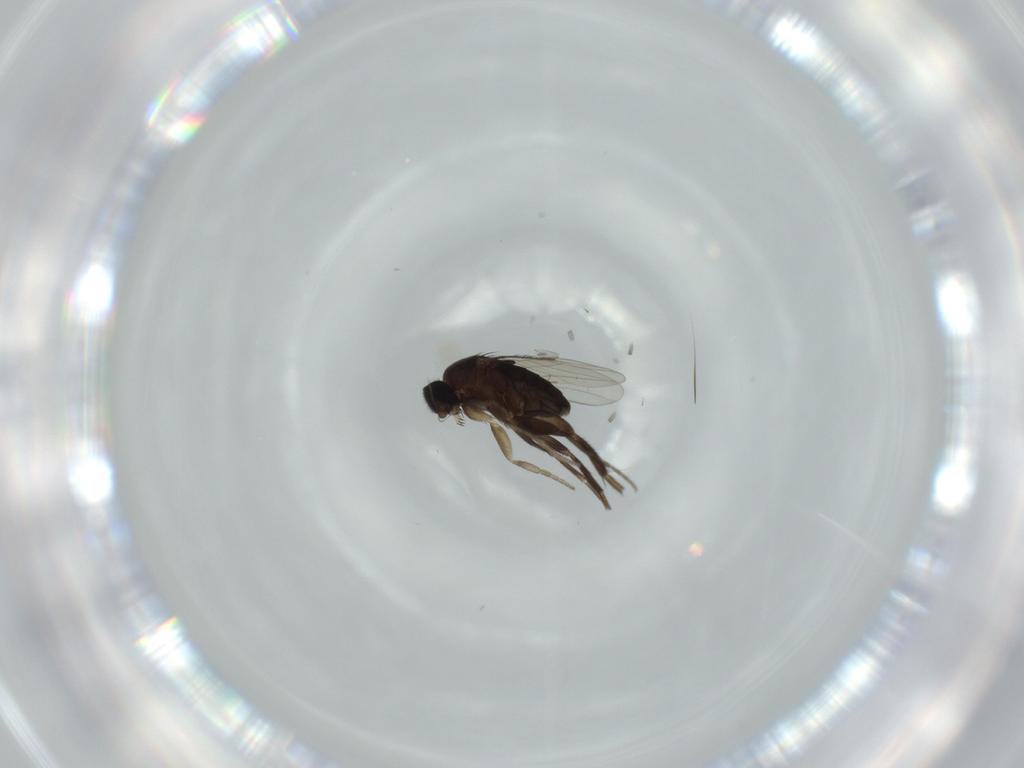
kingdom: Animalia
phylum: Arthropoda
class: Insecta
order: Diptera
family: Phoridae
